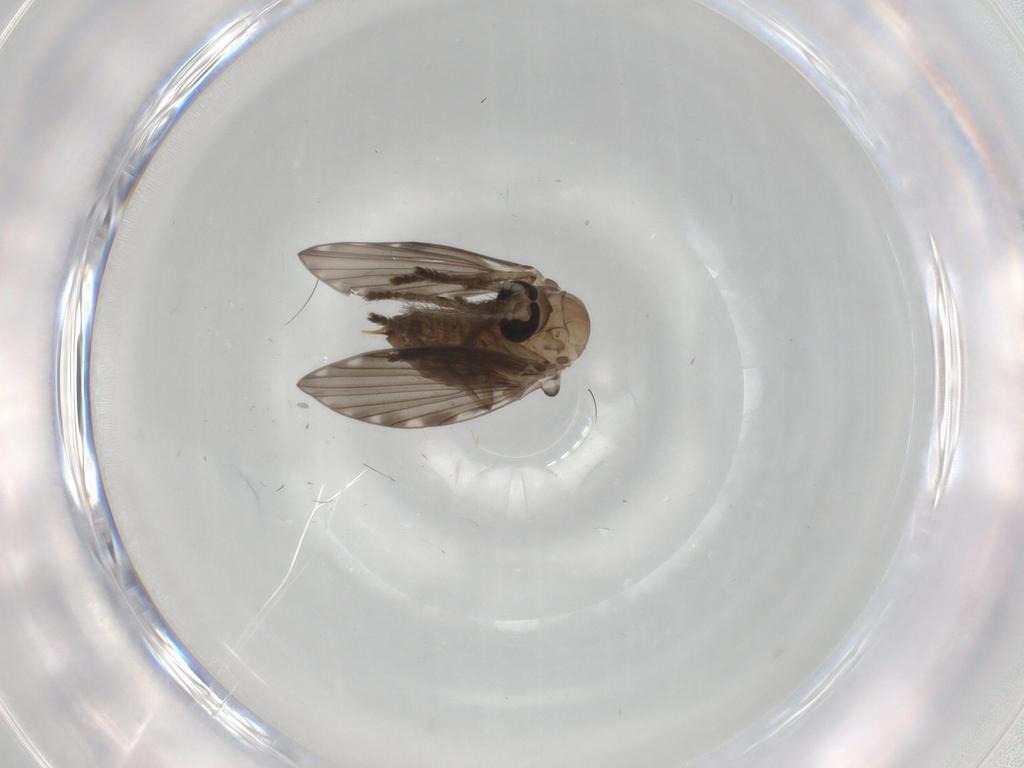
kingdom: Animalia
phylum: Arthropoda
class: Insecta
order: Diptera
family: Psychodidae
